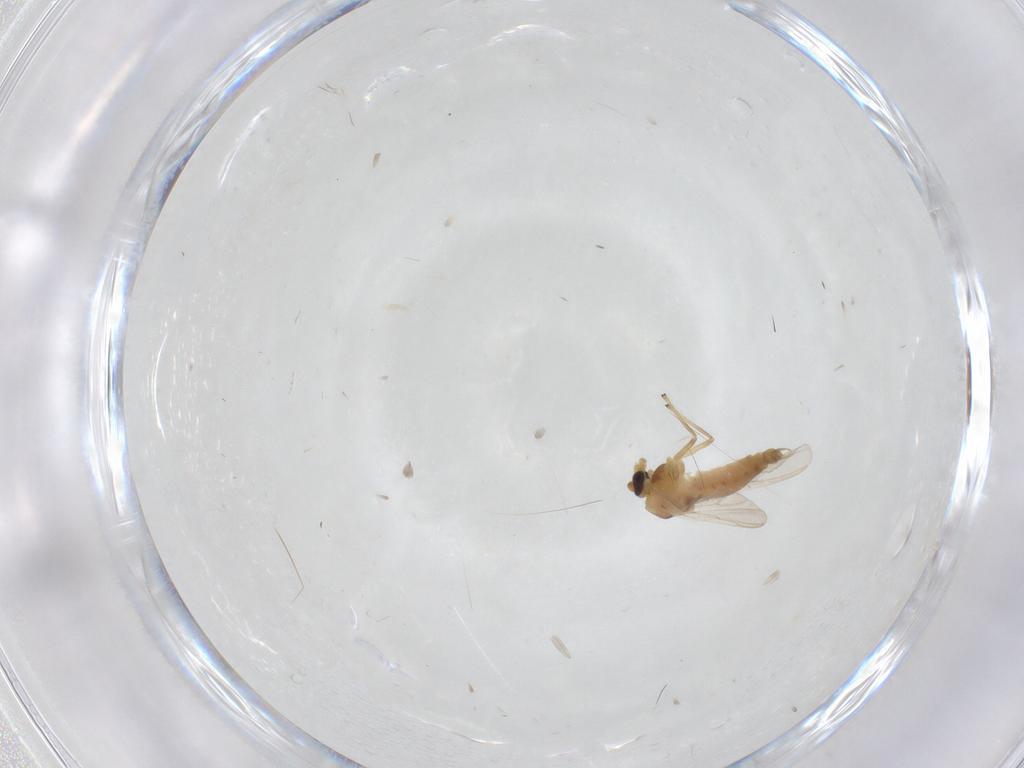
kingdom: Animalia
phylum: Arthropoda
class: Insecta
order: Diptera
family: Chironomidae
